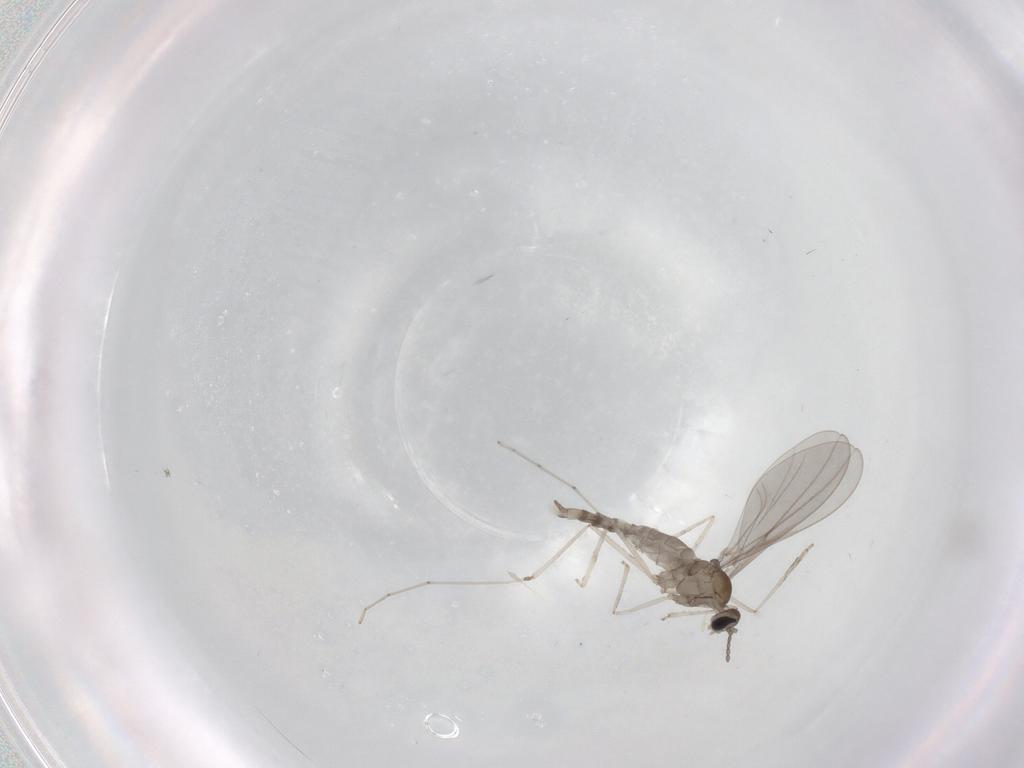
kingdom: Animalia
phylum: Arthropoda
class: Insecta
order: Diptera
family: Cecidomyiidae
